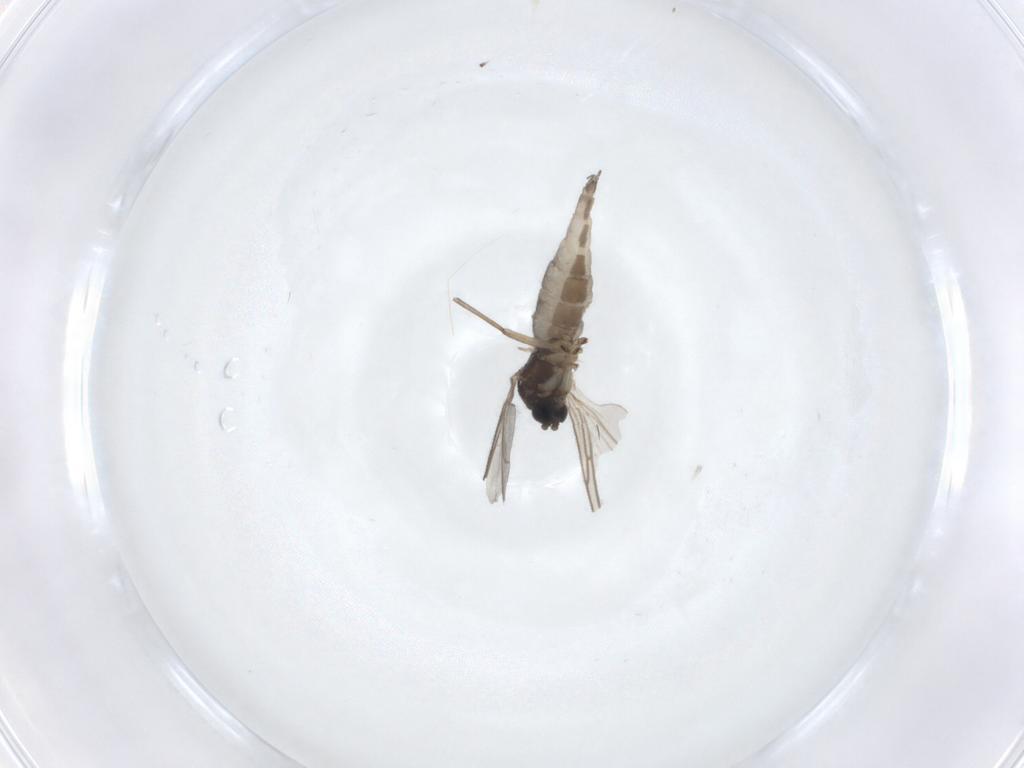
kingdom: Animalia
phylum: Arthropoda
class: Insecta
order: Diptera
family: Sciaridae
